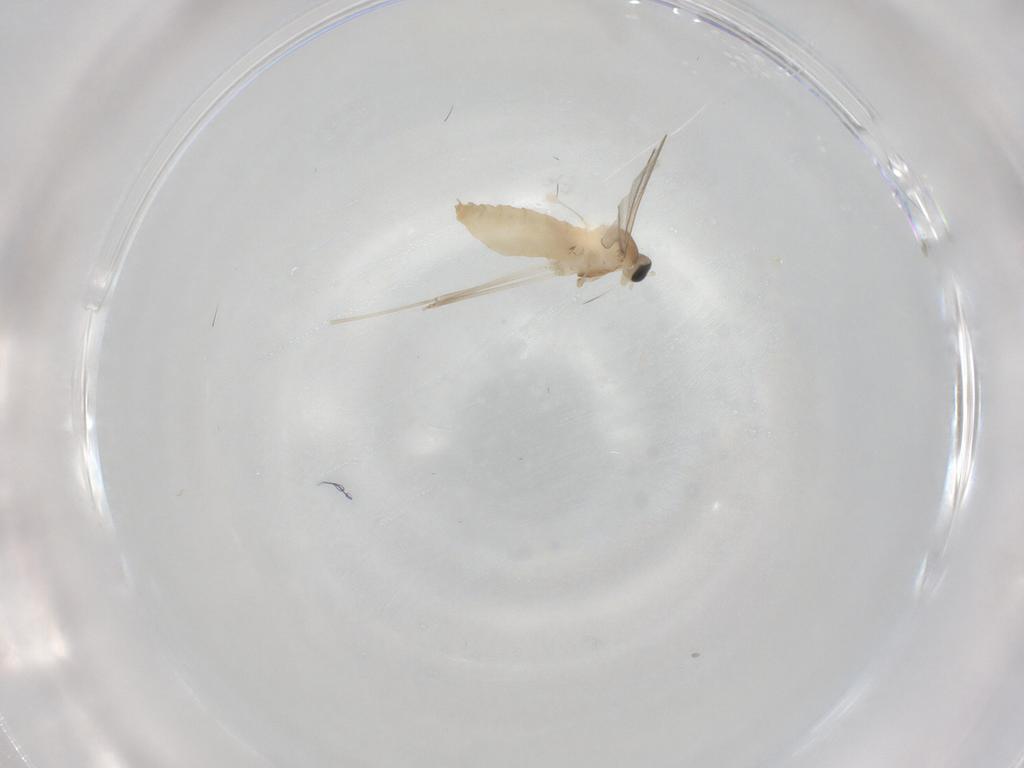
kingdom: Animalia
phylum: Arthropoda
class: Insecta
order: Diptera
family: Cecidomyiidae
